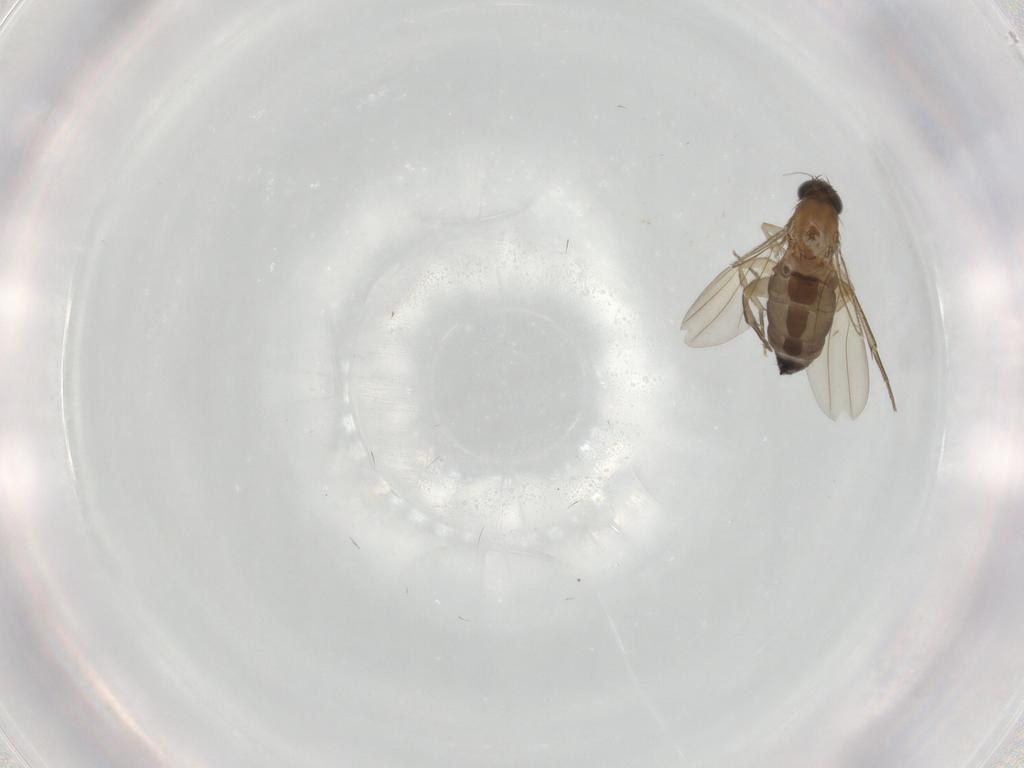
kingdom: Animalia
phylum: Arthropoda
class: Insecta
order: Diptera
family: Phoridae
